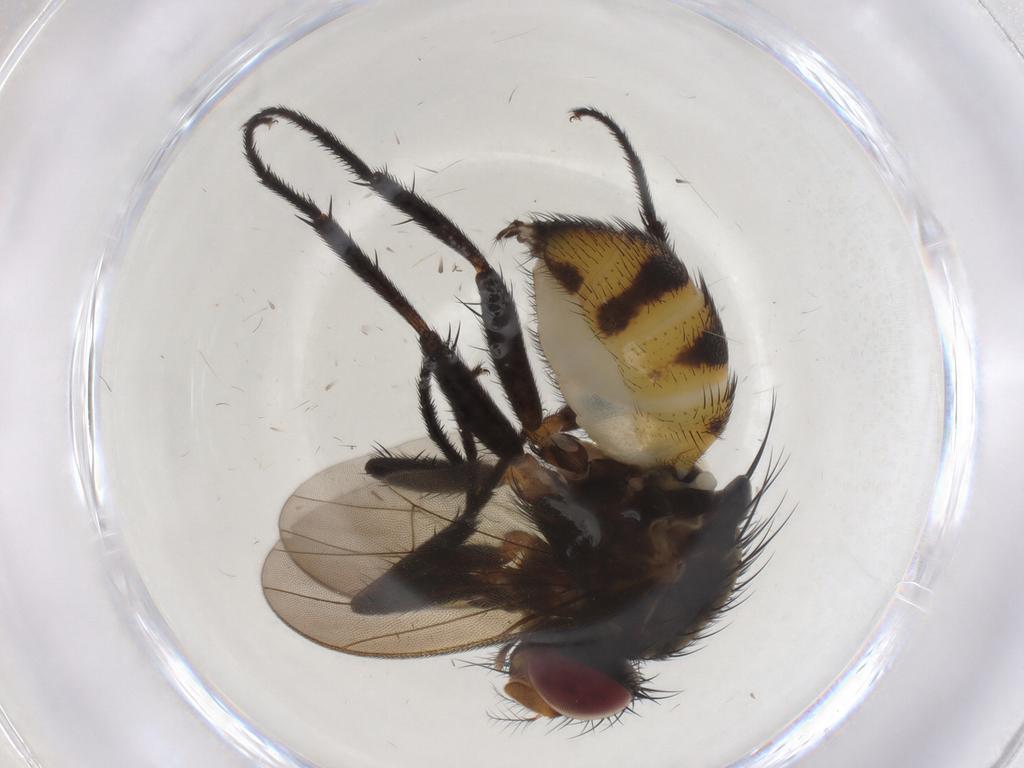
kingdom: Animalia
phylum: Arthropoda
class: Insecta
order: Diptera
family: Anthomyiidae
